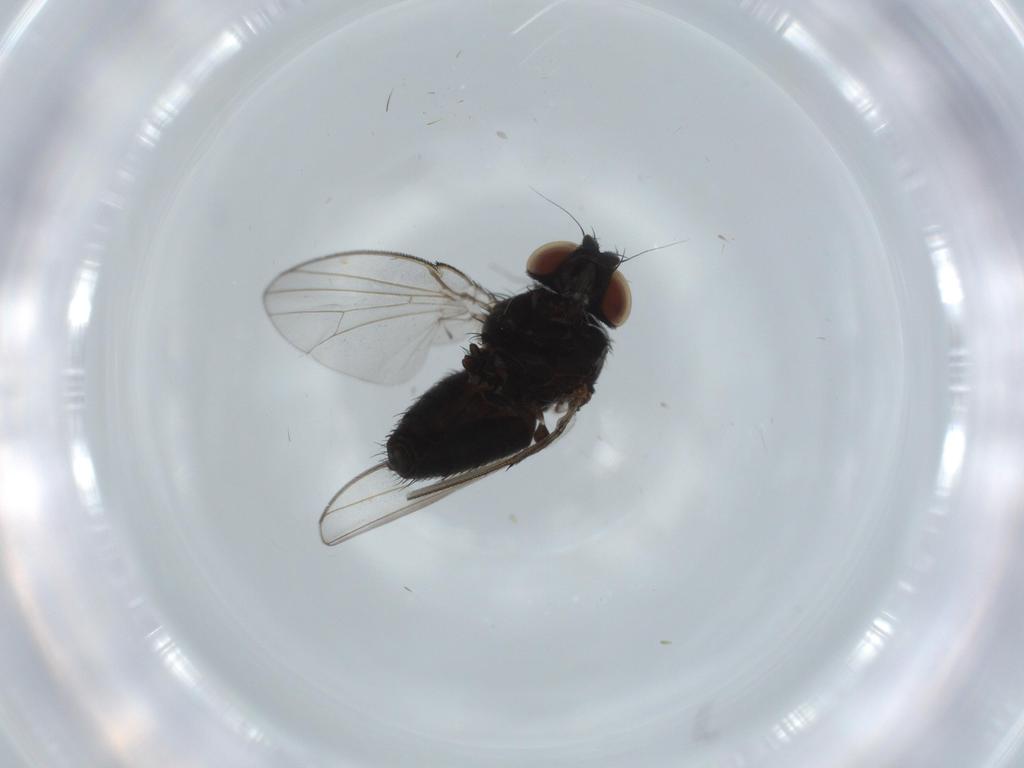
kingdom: Animalia
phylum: Arthropoda
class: Insecta
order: Diptera
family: Milichiidae
